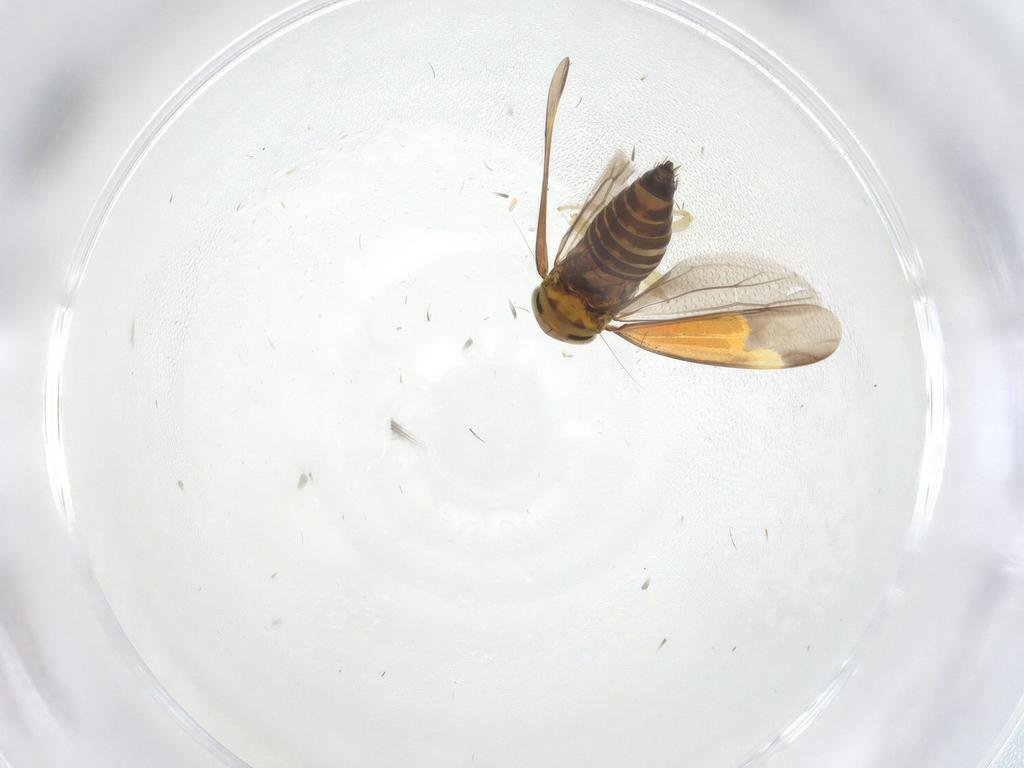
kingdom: Animalia
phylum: Arthropoda
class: Insecta
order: Hemiptera
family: Cicadellidae
